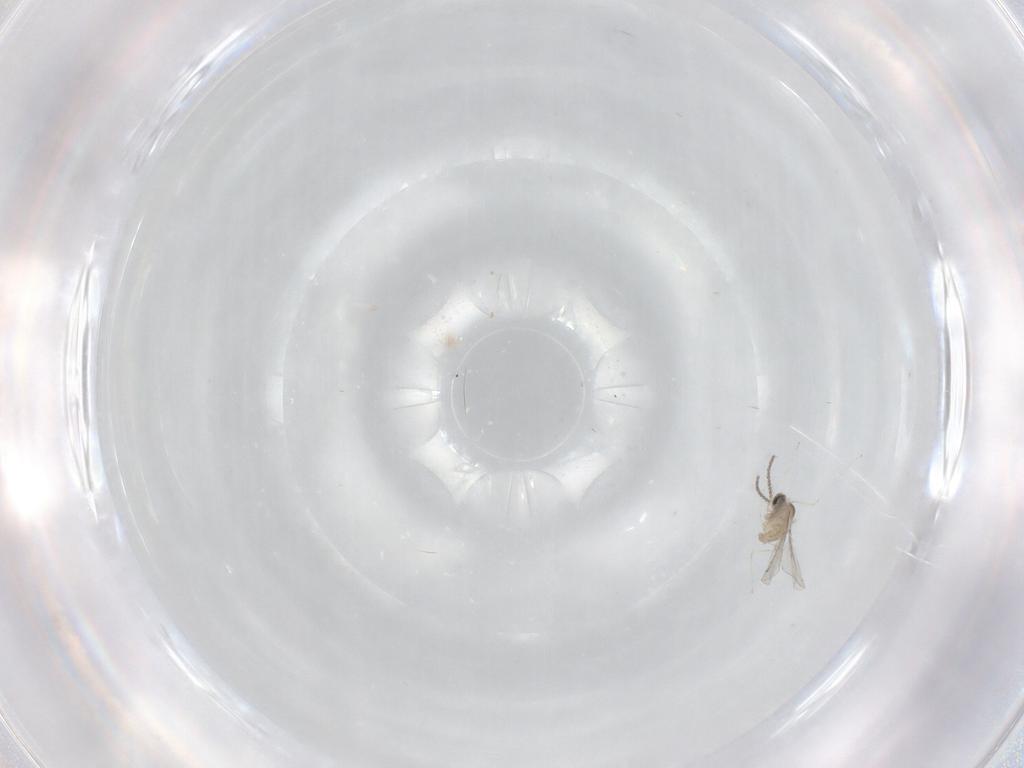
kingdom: Animalia
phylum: Arthropoda
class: Insecta
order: Diptera
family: Cecidomyiidae
